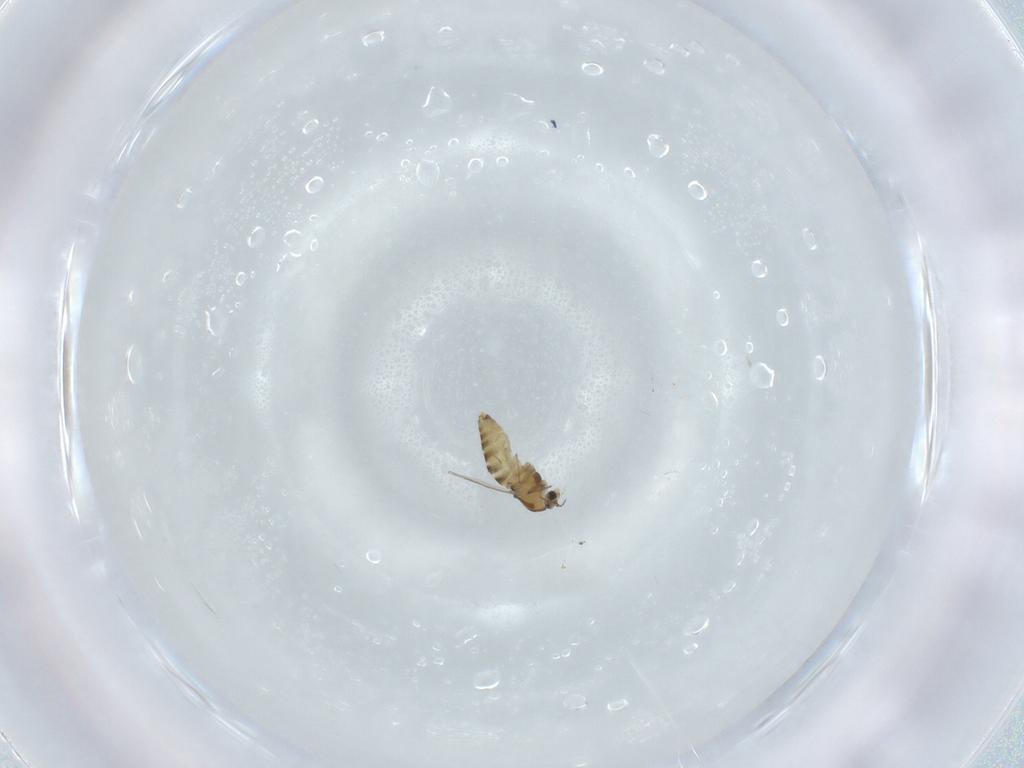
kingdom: Animalia
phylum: Arthropoda
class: Insecta
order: Diptera
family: Chironomidae
